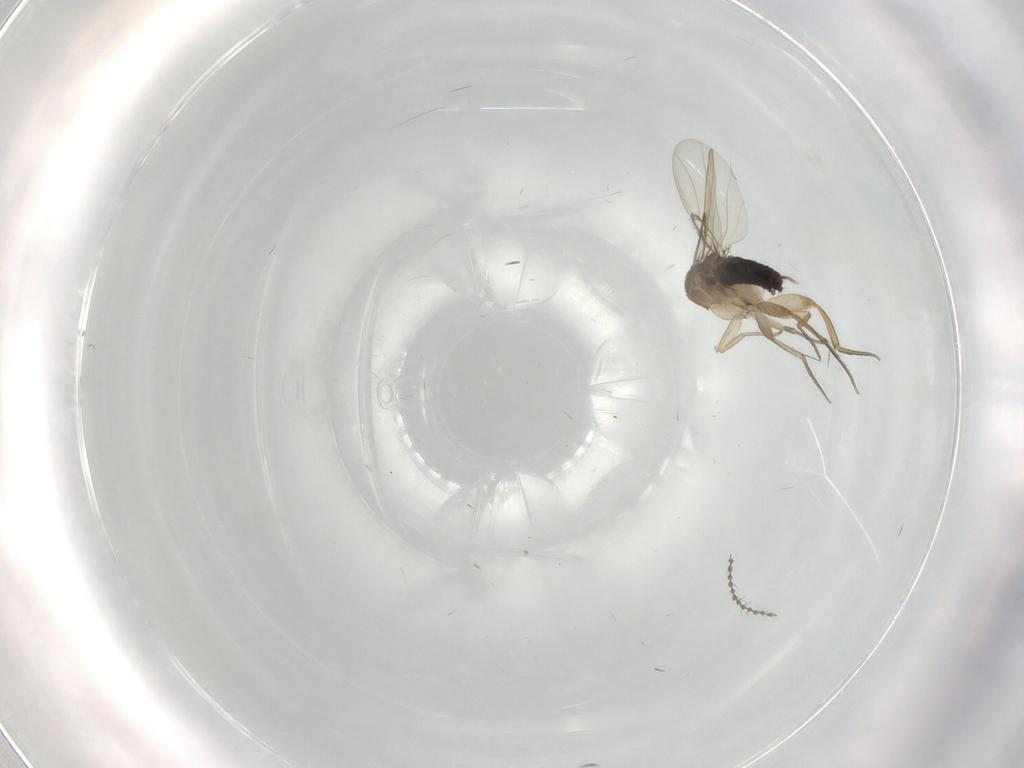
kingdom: Animalia
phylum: Arthropoda
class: Insecta
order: Diptera
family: Phoridae
